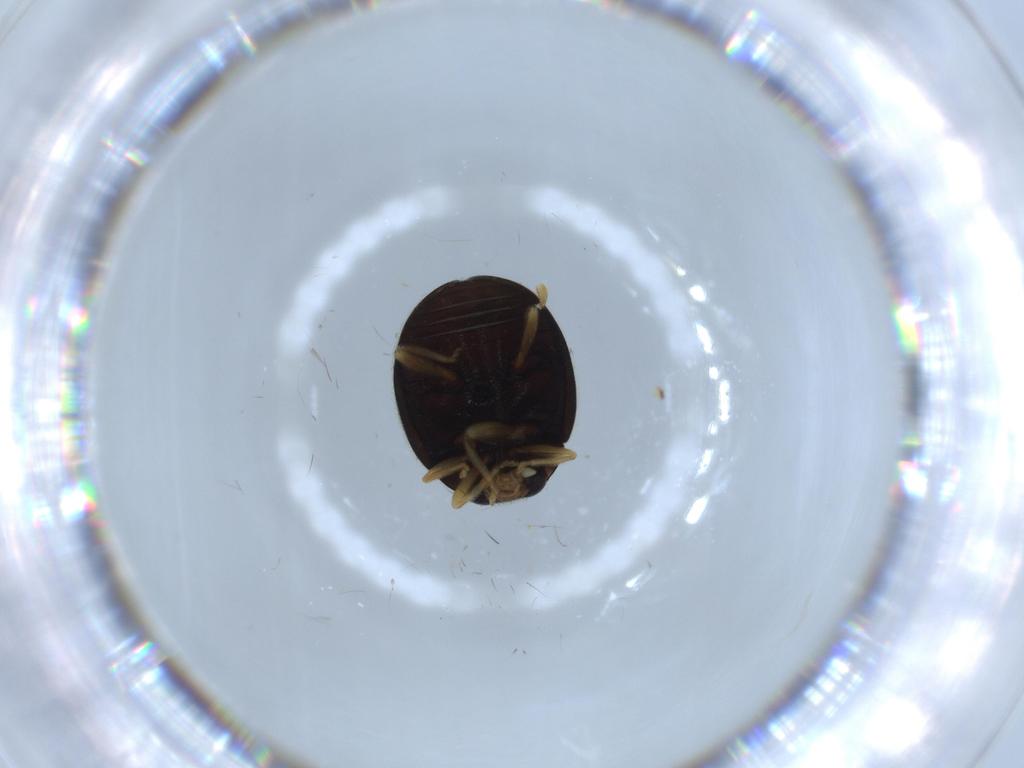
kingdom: Animalia
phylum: Arthropoda
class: Insecta
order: Coleoptera
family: Coccinellidae
